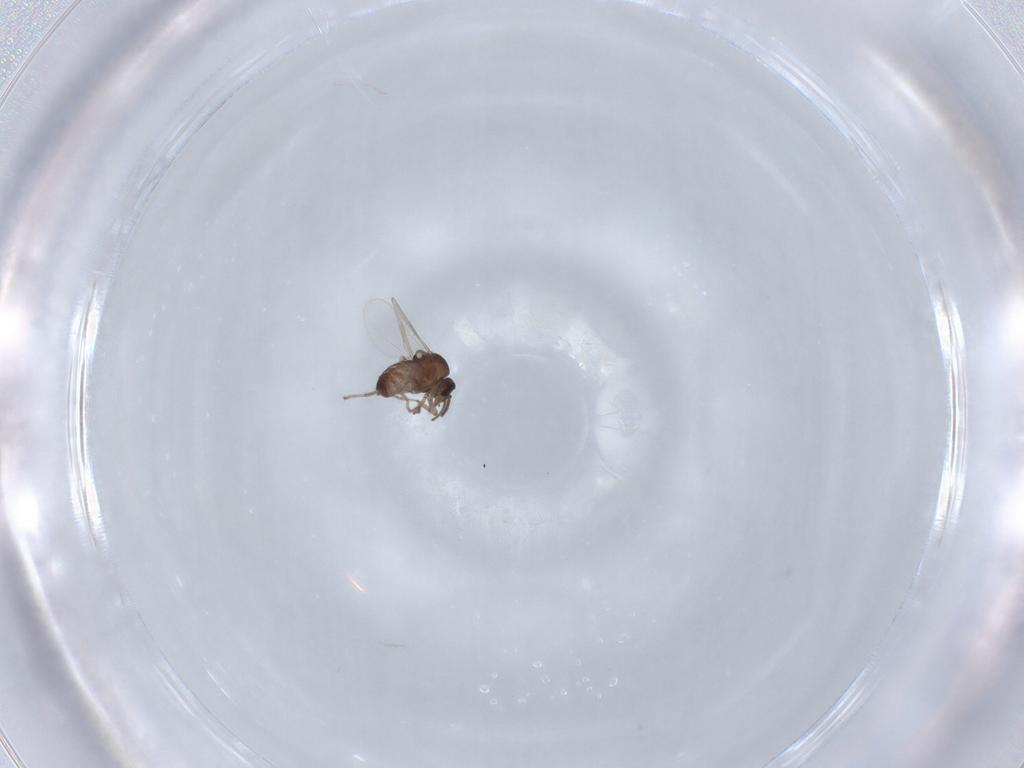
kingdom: Animalia
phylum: Arthropoda
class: Insecta
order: Diptera
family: Ceratopogonidae
